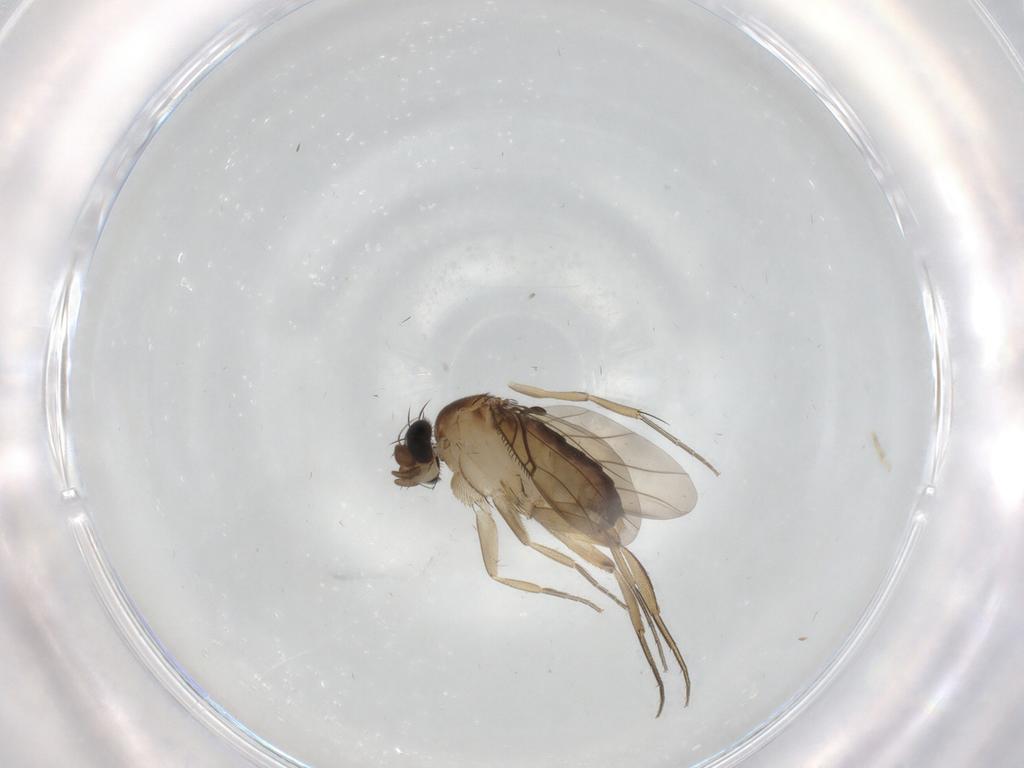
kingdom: Animalia
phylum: Arthropoda
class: Insecta
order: Diptera
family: Phoridae
